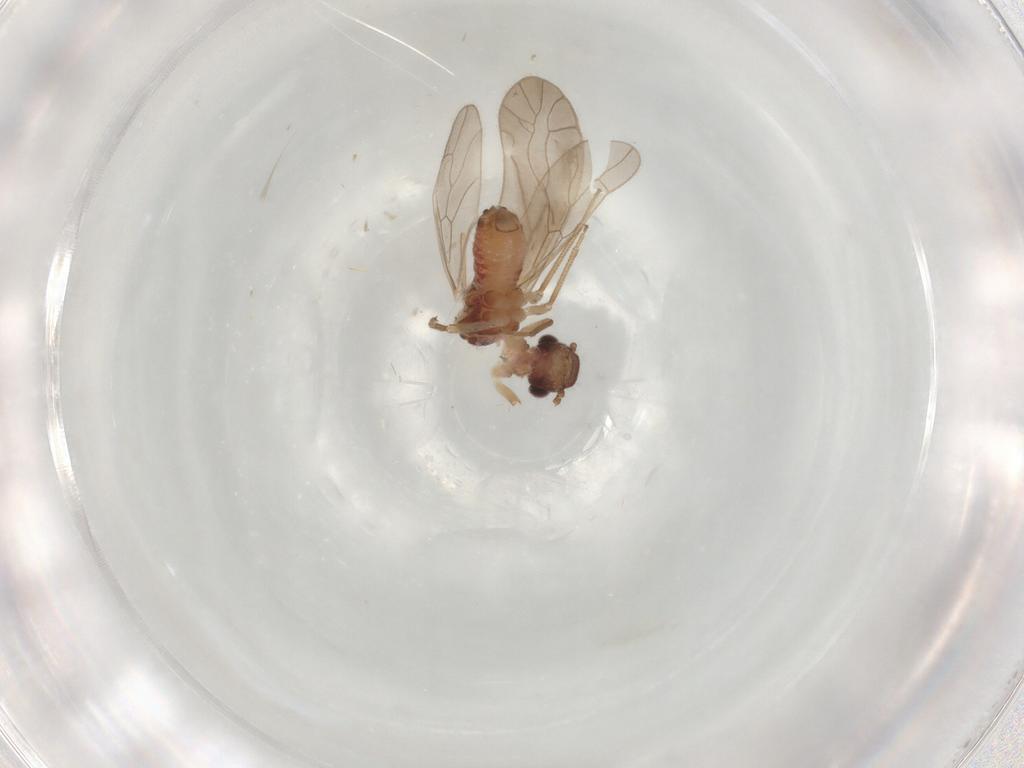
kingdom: Animalia
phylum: Arthropoda
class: Insecta
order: Psocodea
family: Caeciliusidae
